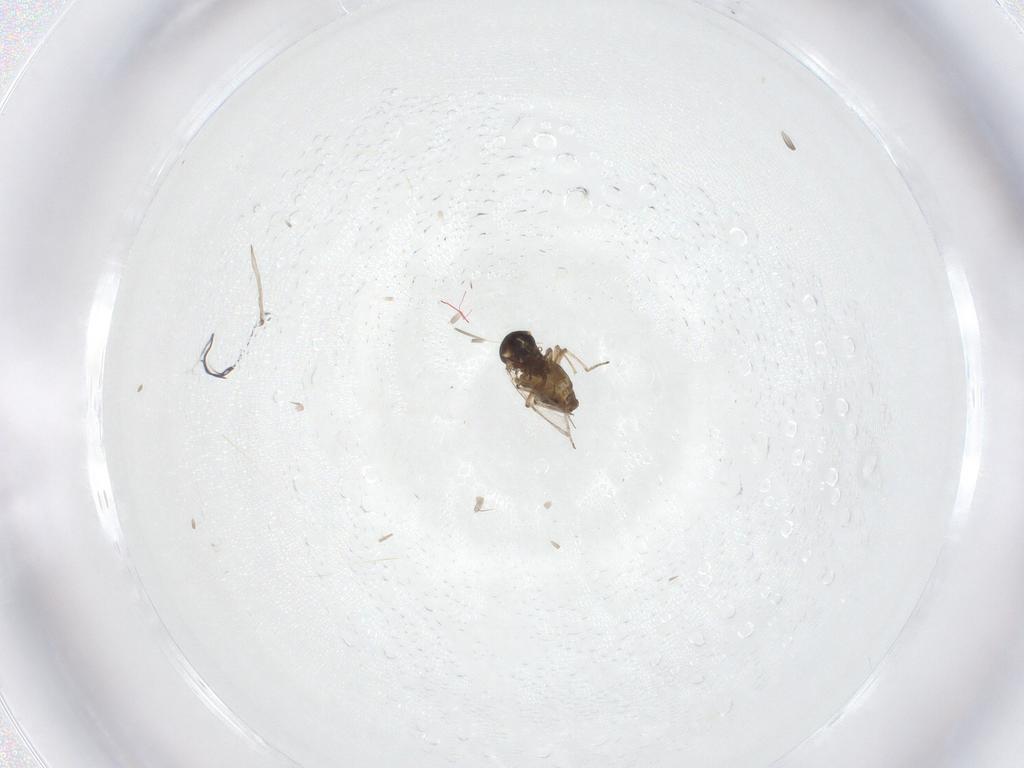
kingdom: Animalia
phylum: Arthropoda
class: Insecta
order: Diptera
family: Ceratopogonidae
